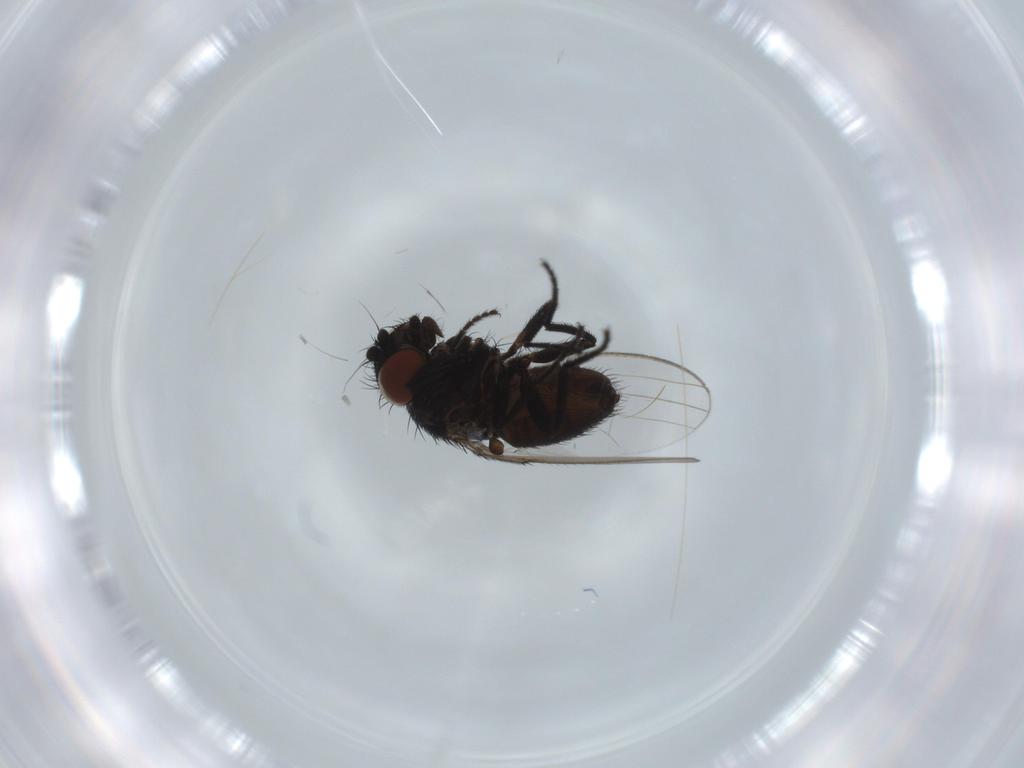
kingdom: Animalia
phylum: Arthropoda
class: Insecta
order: Diptera
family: Milichiidae
